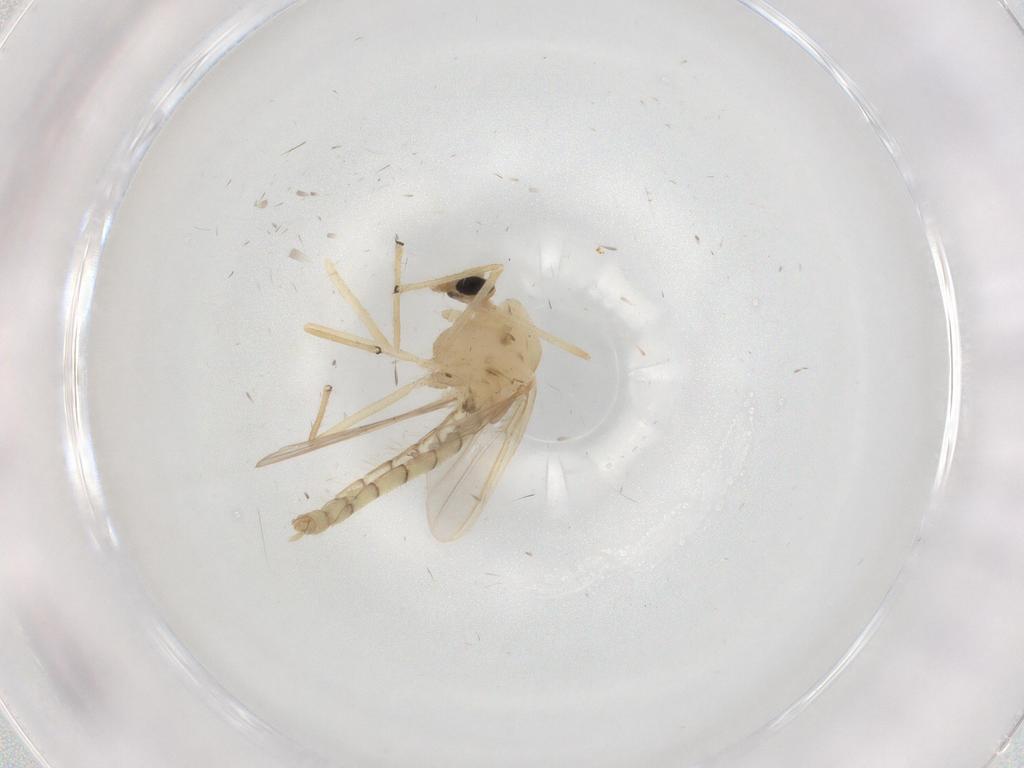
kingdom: Animalia
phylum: Arthropoda
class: Insecta
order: Diptera
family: Chironomidae
